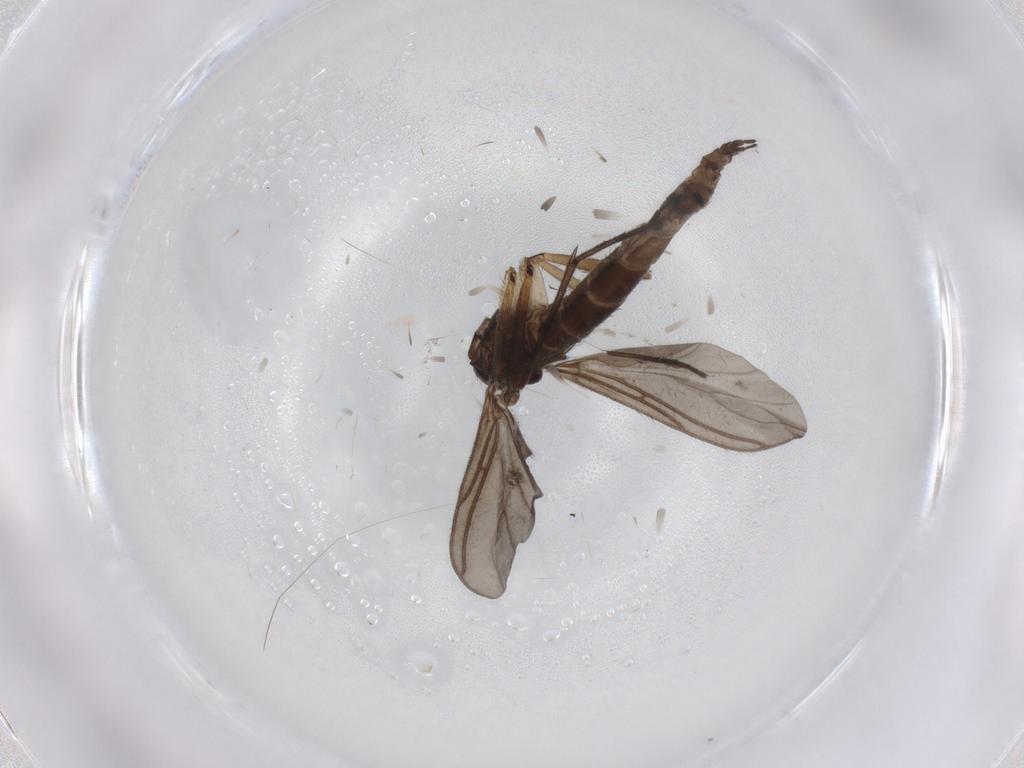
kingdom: Animalia
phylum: Arthropoda
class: Insecta
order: Diptera
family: Sciaridae
